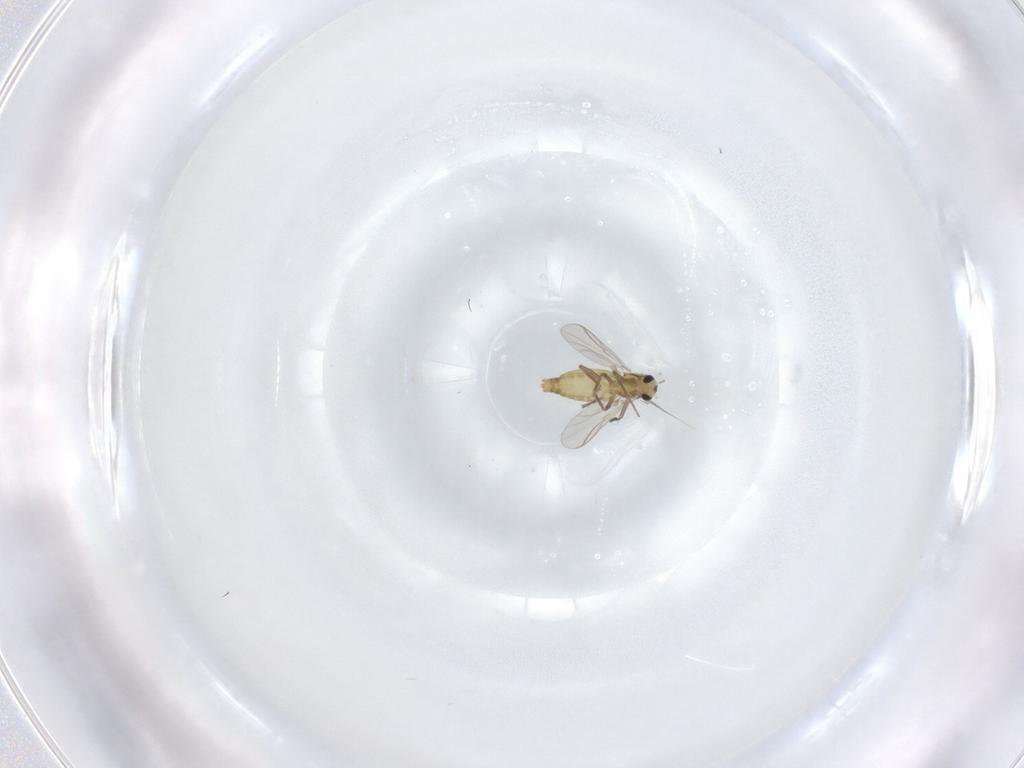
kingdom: Animalia
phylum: Arthropoda
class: Insecta
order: Diptera
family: Chironomidae
